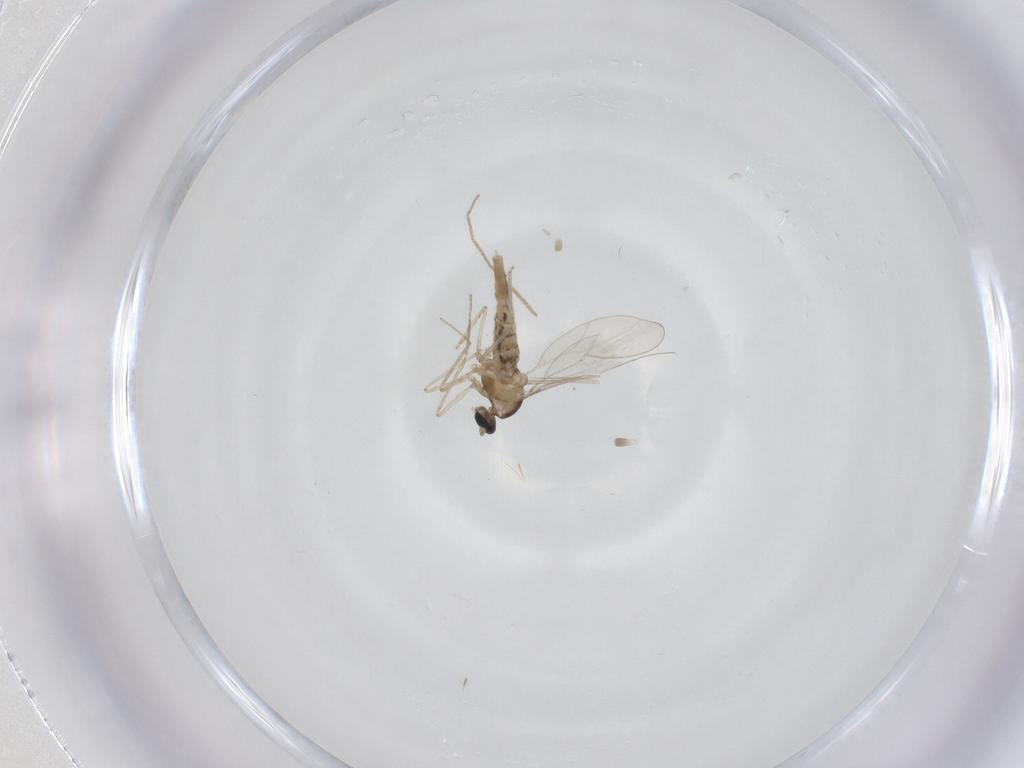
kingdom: Animalia
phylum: Arthropoda
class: Insecta
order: Diptera
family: Cecidomyiidae
